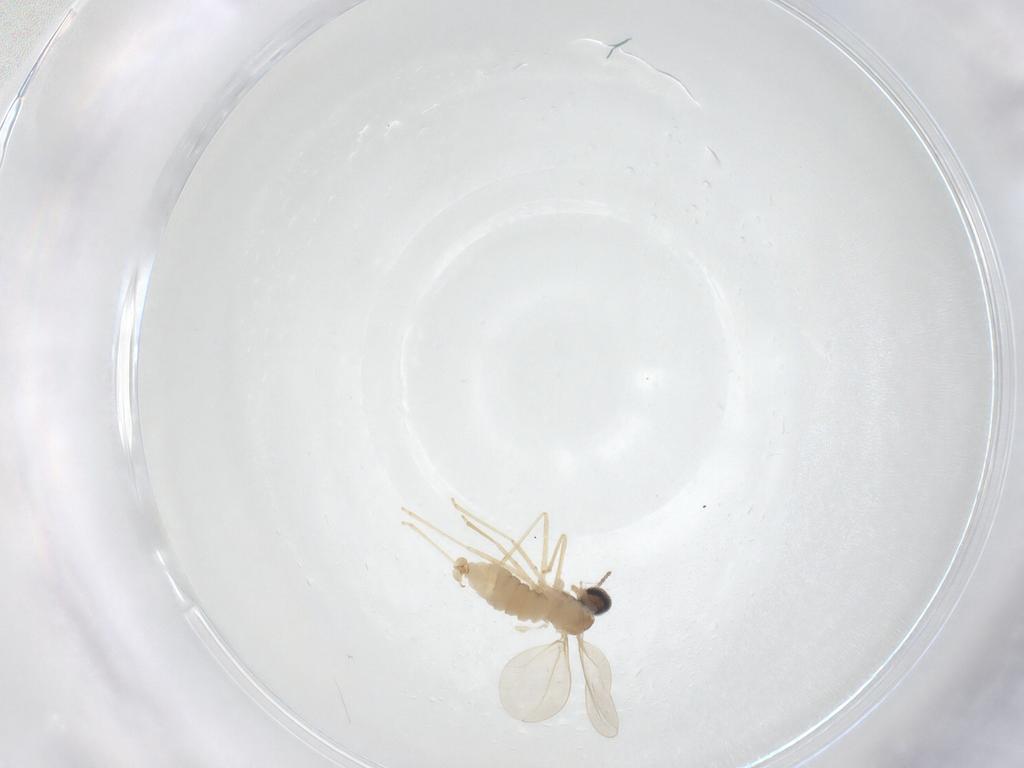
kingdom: Animalia
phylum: Arthropoda
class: Insecta
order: Diptera
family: Cecidomyiidae
